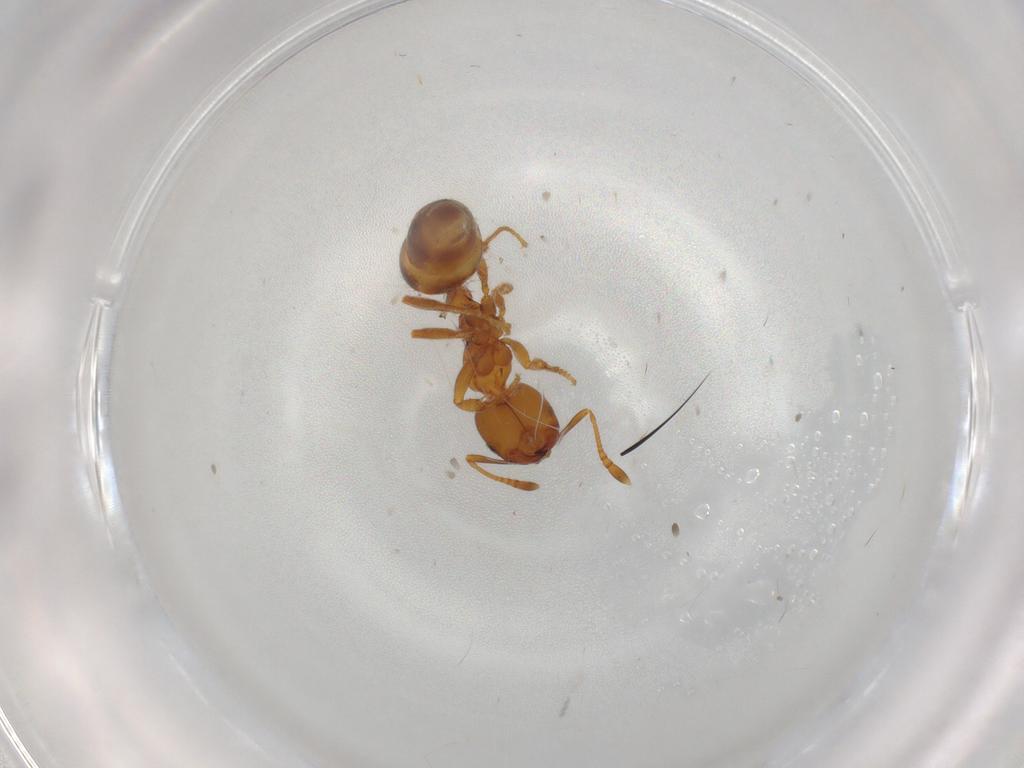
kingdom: Animalia
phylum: Arthropoda
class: Insecta
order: Hymenoptera
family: Formicidae
